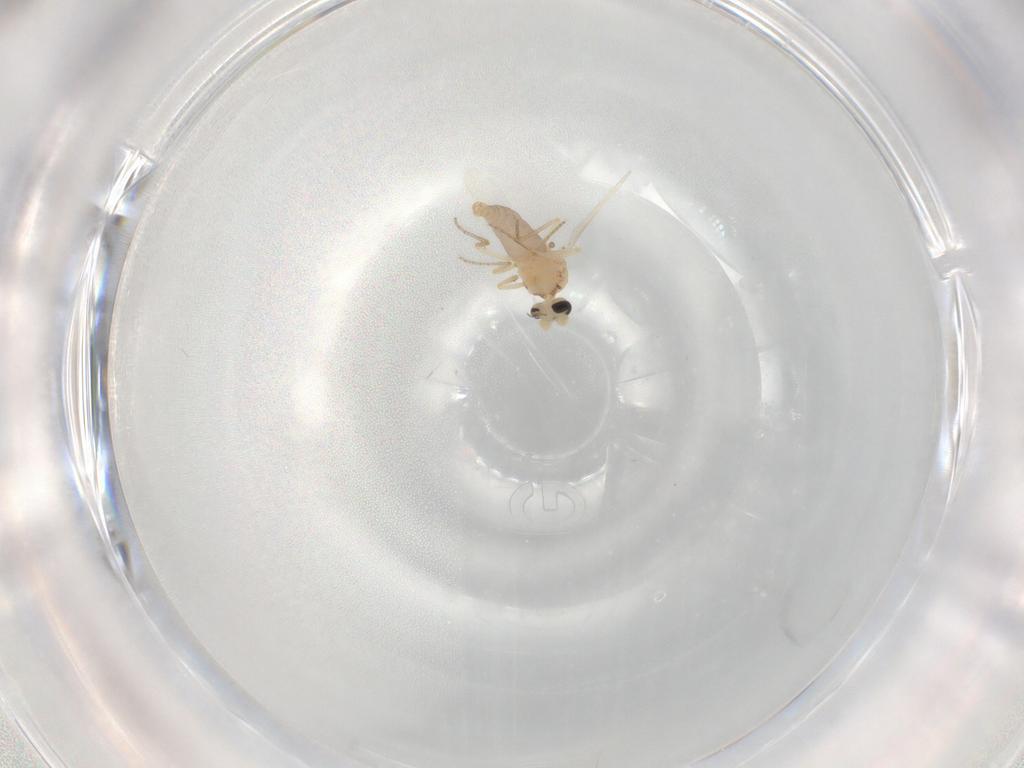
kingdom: Animalia
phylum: Arthropoda
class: Insecta
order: Diptera
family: Ceratopogonidae
